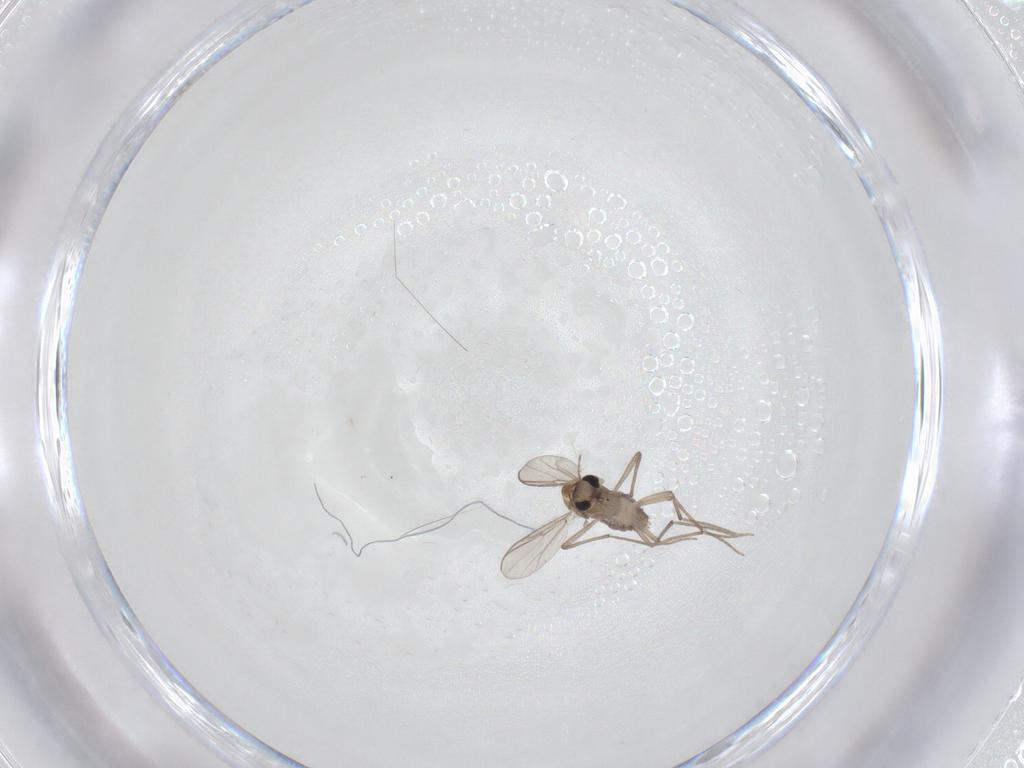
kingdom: Animalia
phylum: Arthropoda
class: Insecta
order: Diptera
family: Chironomidae
